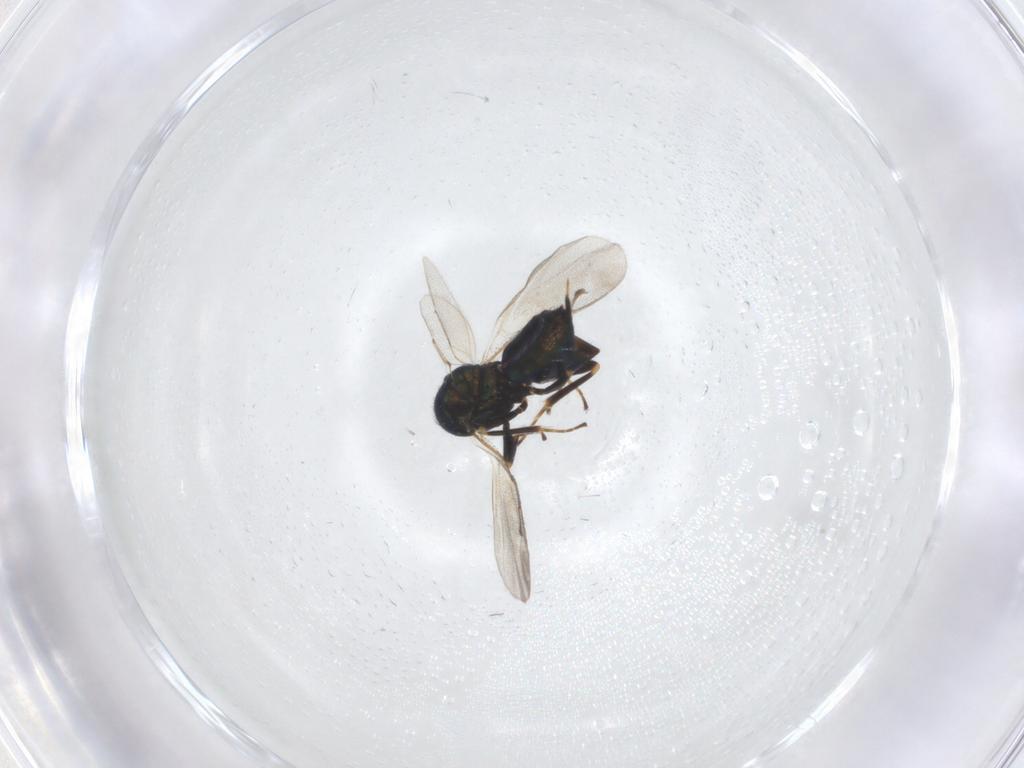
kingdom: Animalia
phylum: Arthropoda
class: Insecta
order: Hymenoptera
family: Pteromalidae
